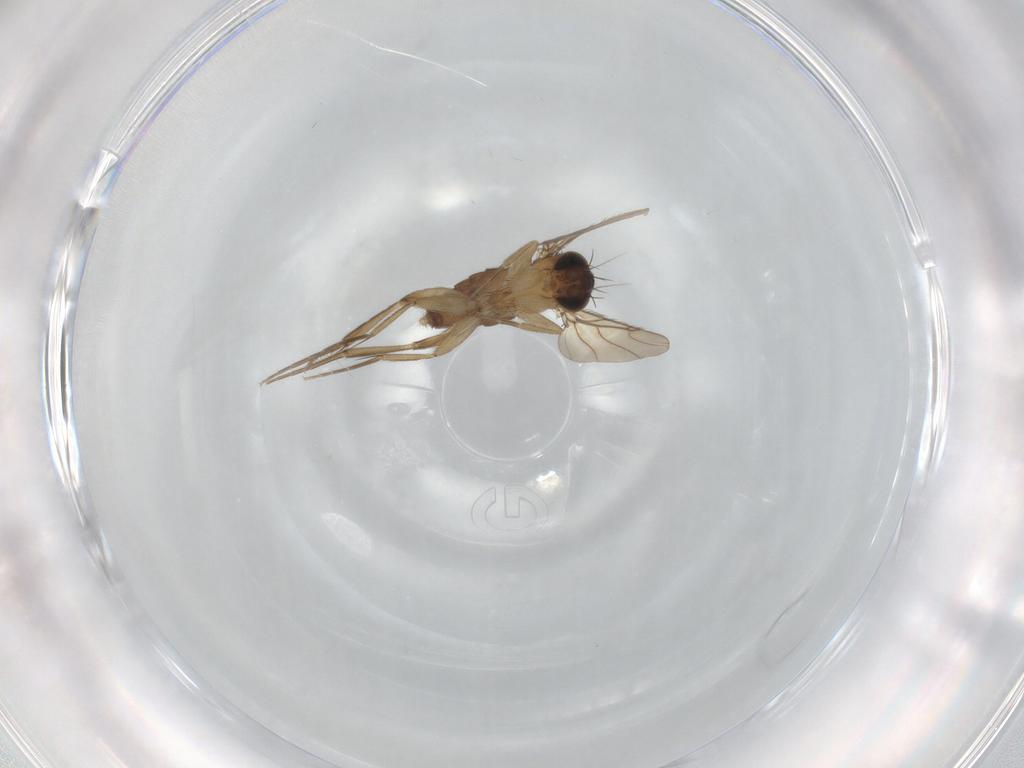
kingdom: Animalia
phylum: Arthropoda
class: Insecta
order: Diptera
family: Phoridae
